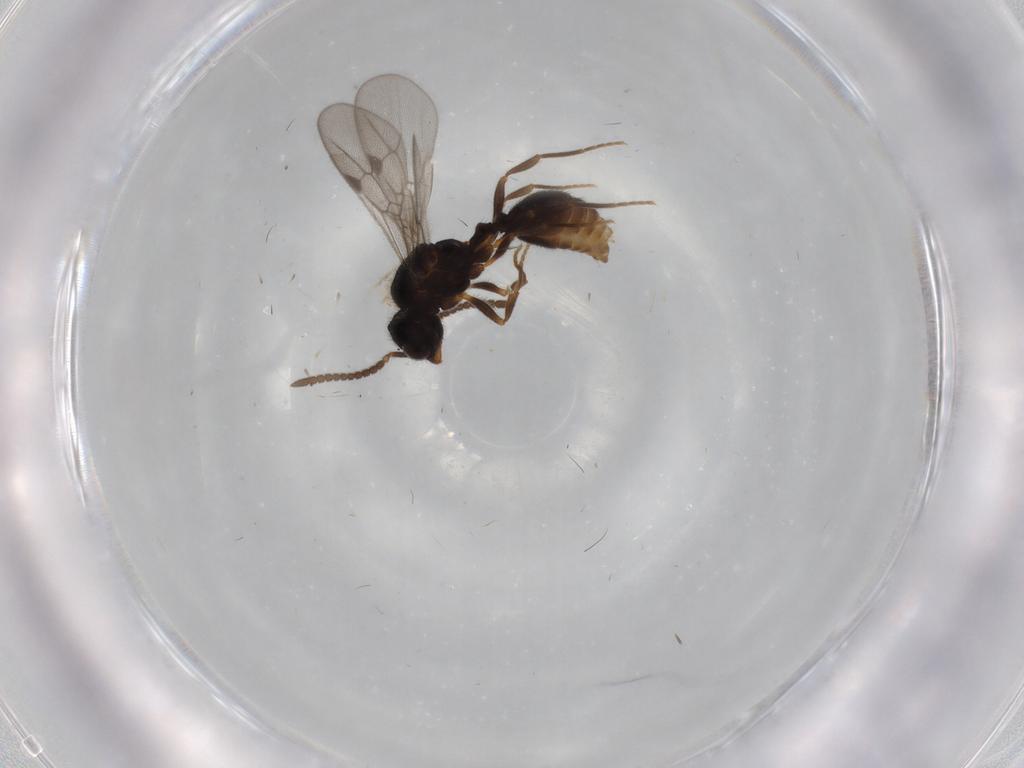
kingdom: Animalia
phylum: Arthropoda
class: Insecta
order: Hymenoptera
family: Formicidae
